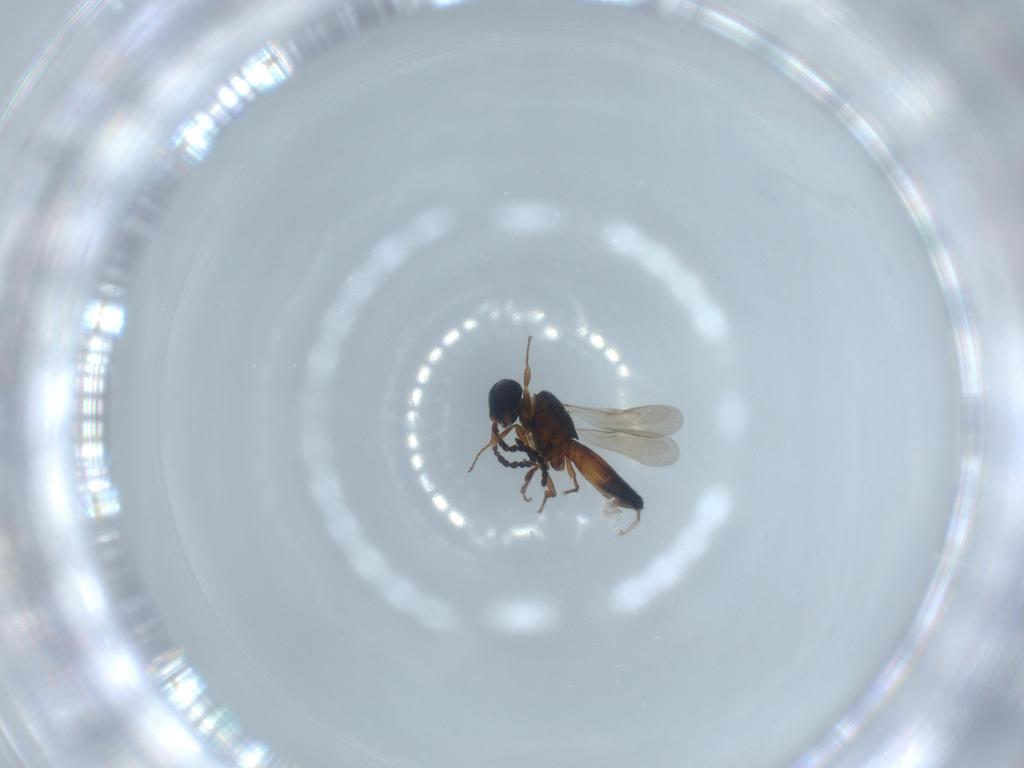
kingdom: Animalia
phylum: Arthropoda
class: Insecta
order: Hymenoptera
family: Scelionidae
